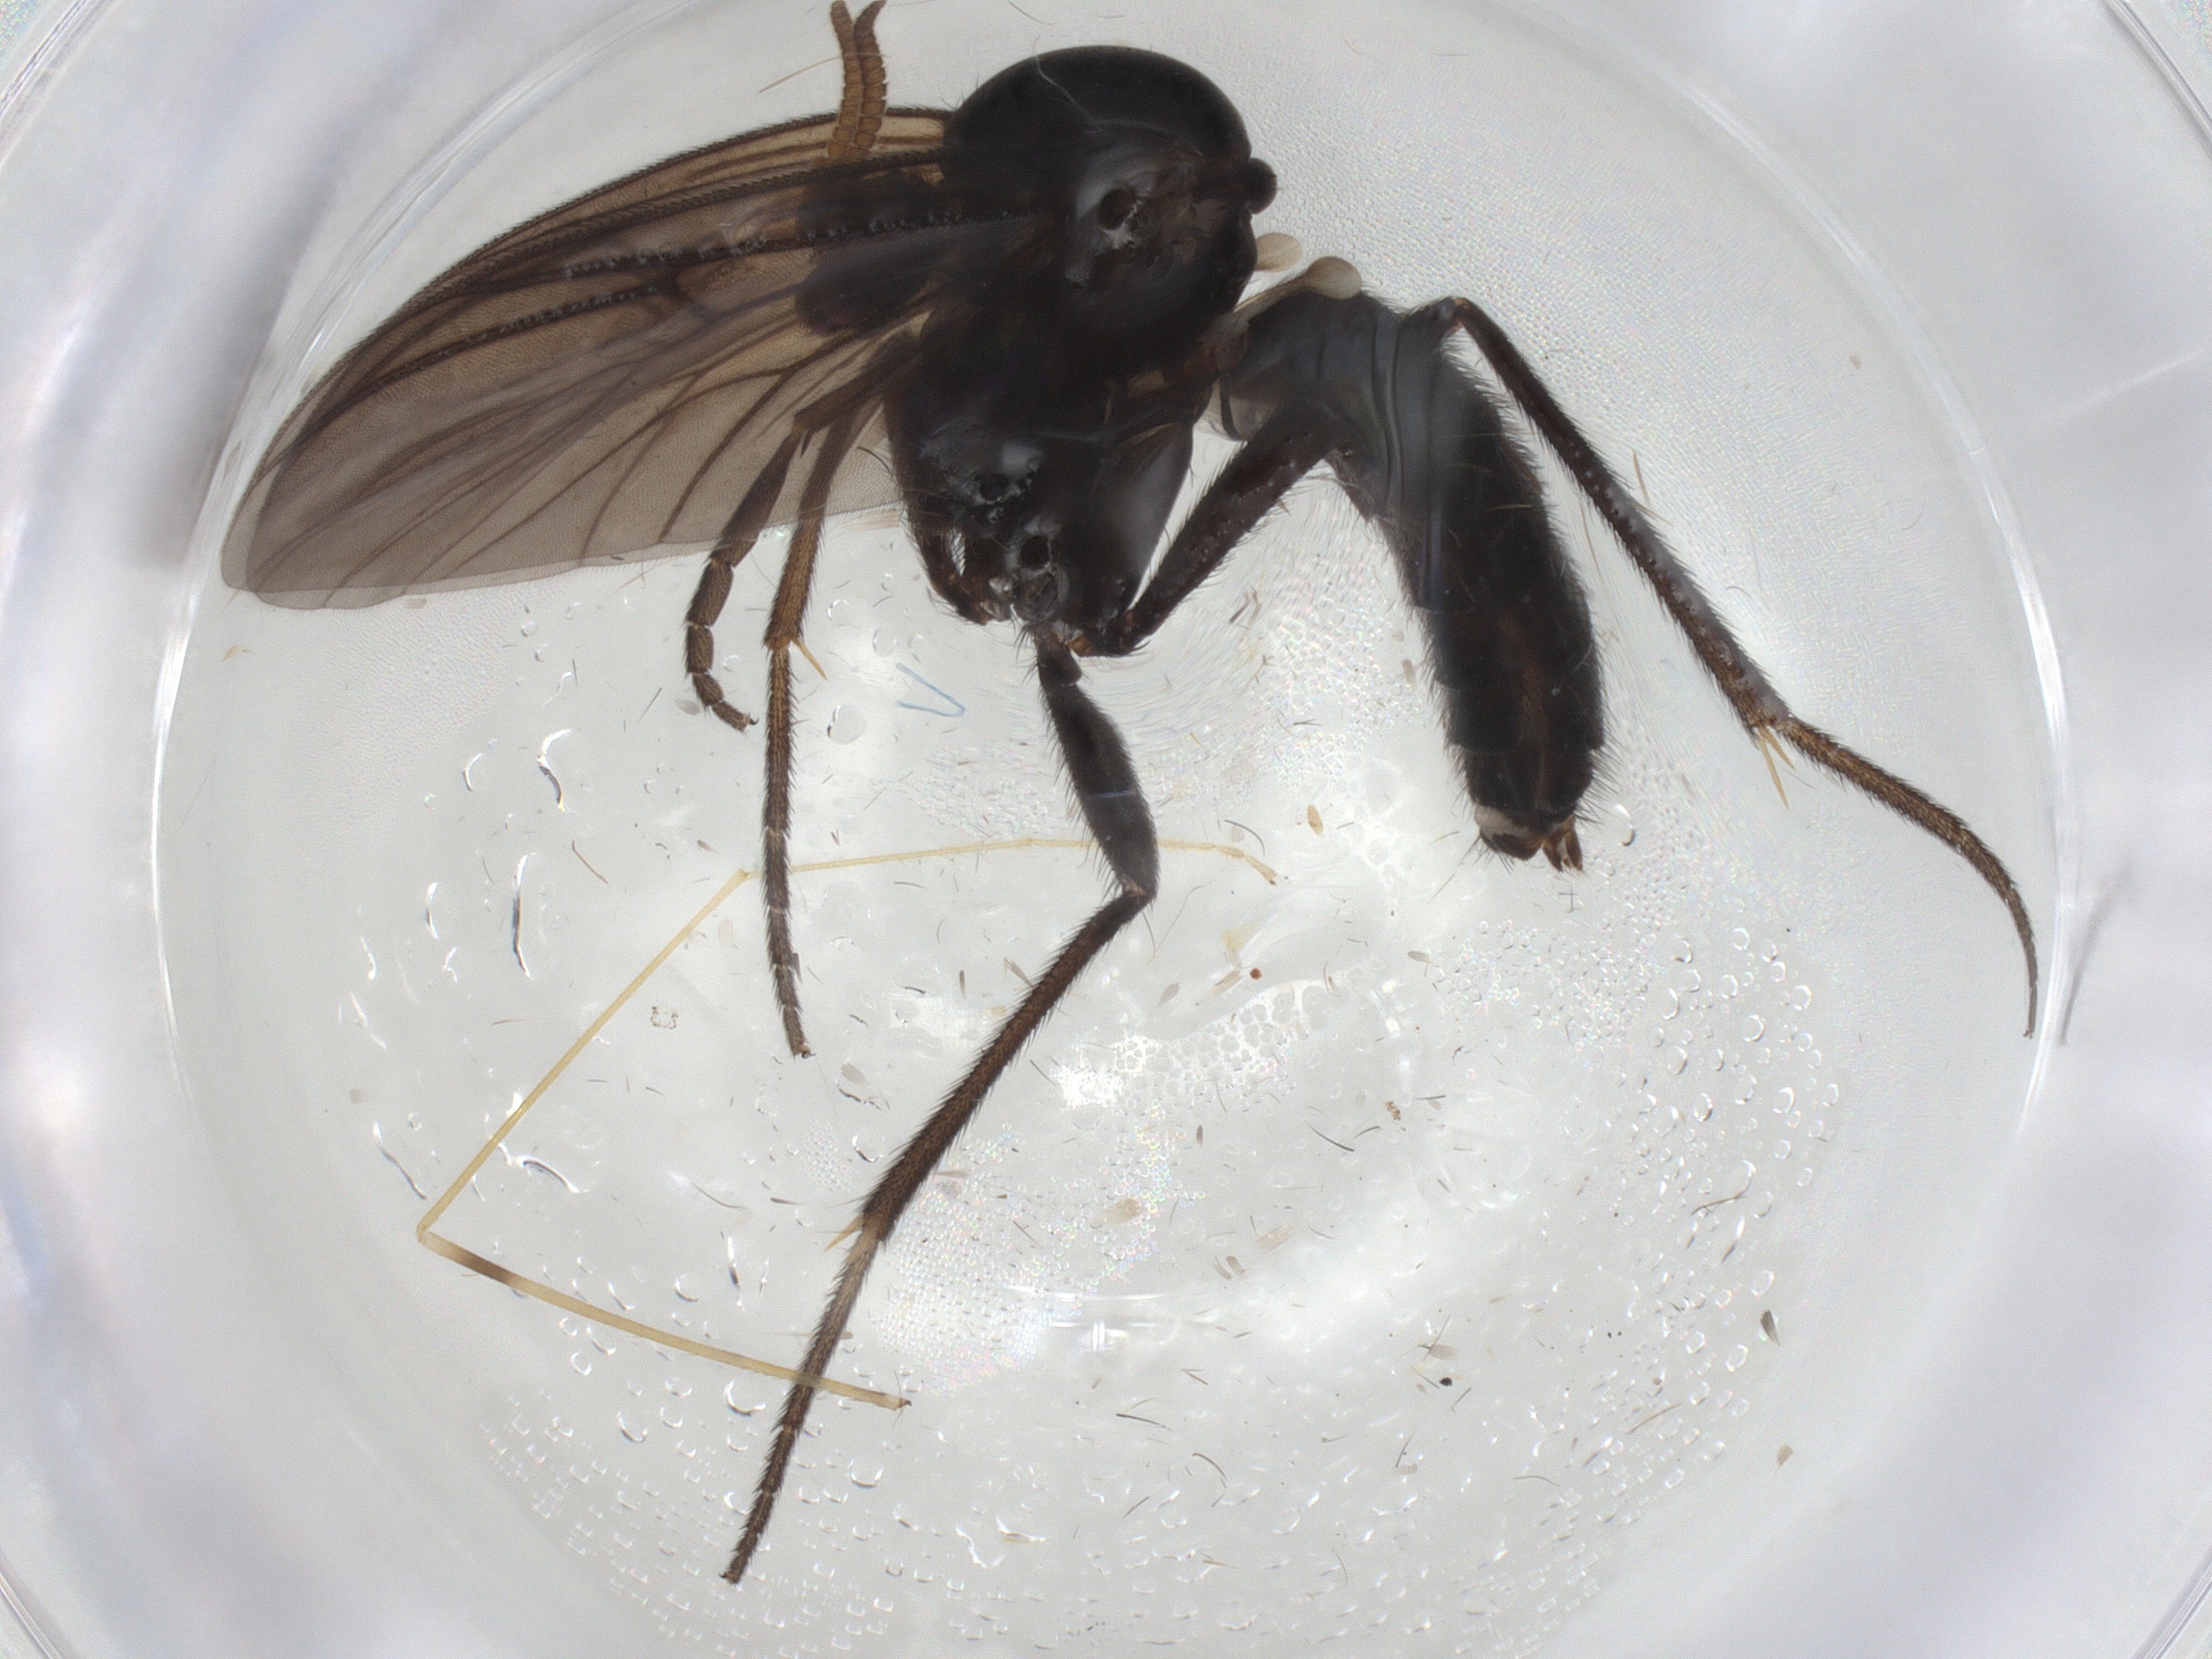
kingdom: Animalia
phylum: Arthropoda
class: Insecta
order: Diptera
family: Mycetophilidae
